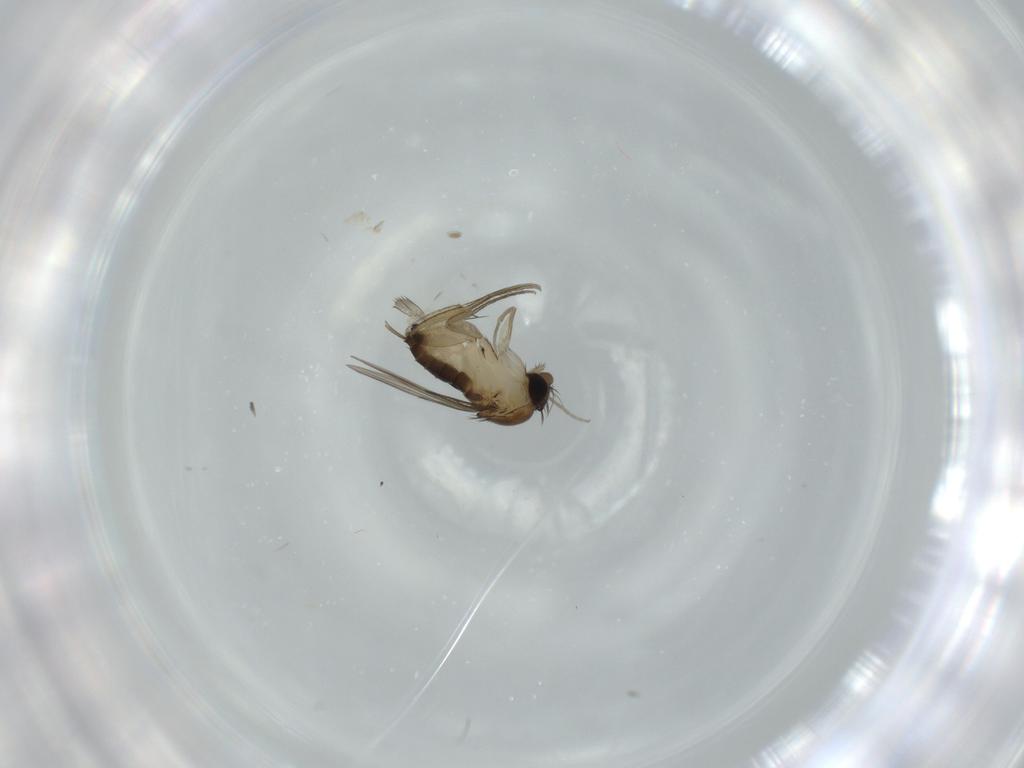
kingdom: Animalia
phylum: Arthropoda
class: Insecta
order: Diptera
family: Phoridae
